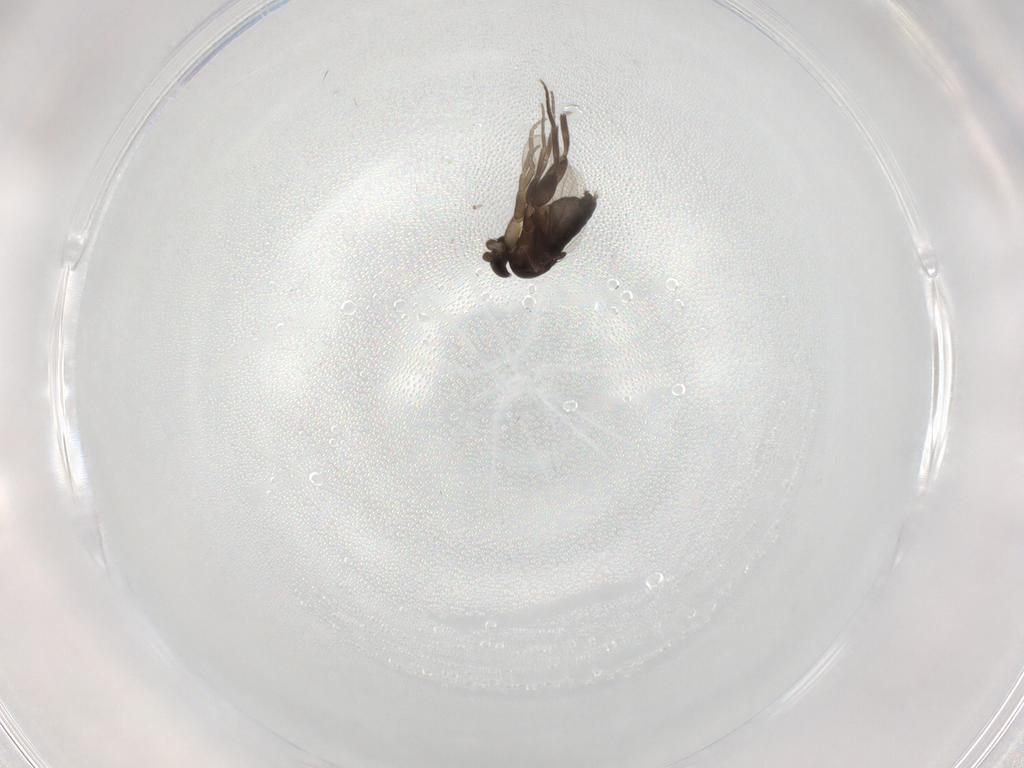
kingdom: Animalia
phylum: Arthropoda
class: Insecta
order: Diptera
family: Phoridae
